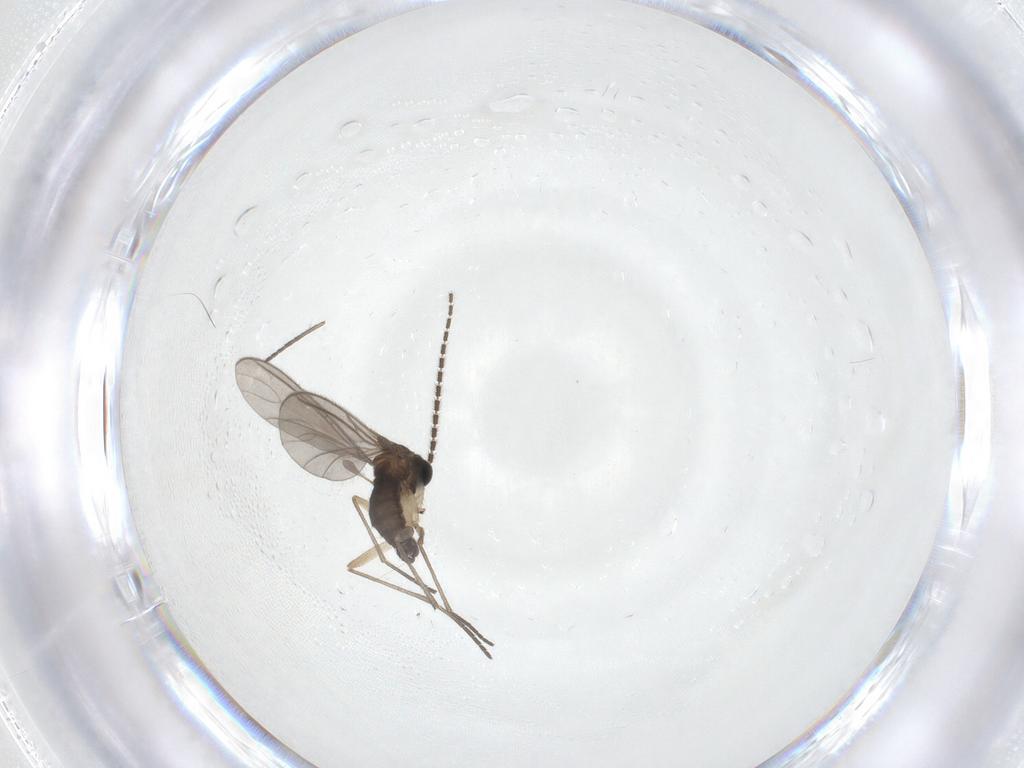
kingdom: Animalia
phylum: Arthropoda
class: Insecta
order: Diptera
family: Sciaridae
